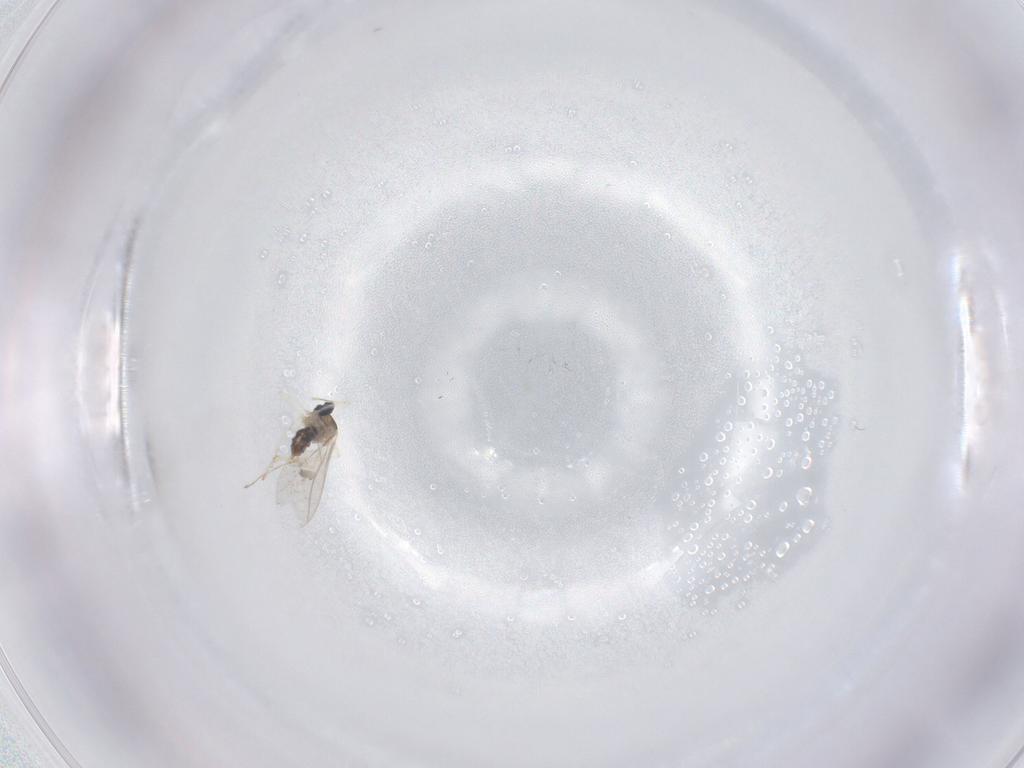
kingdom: Animalia
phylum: Arthropoda
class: Insecta
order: Diptera
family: Cecidomyiidae
